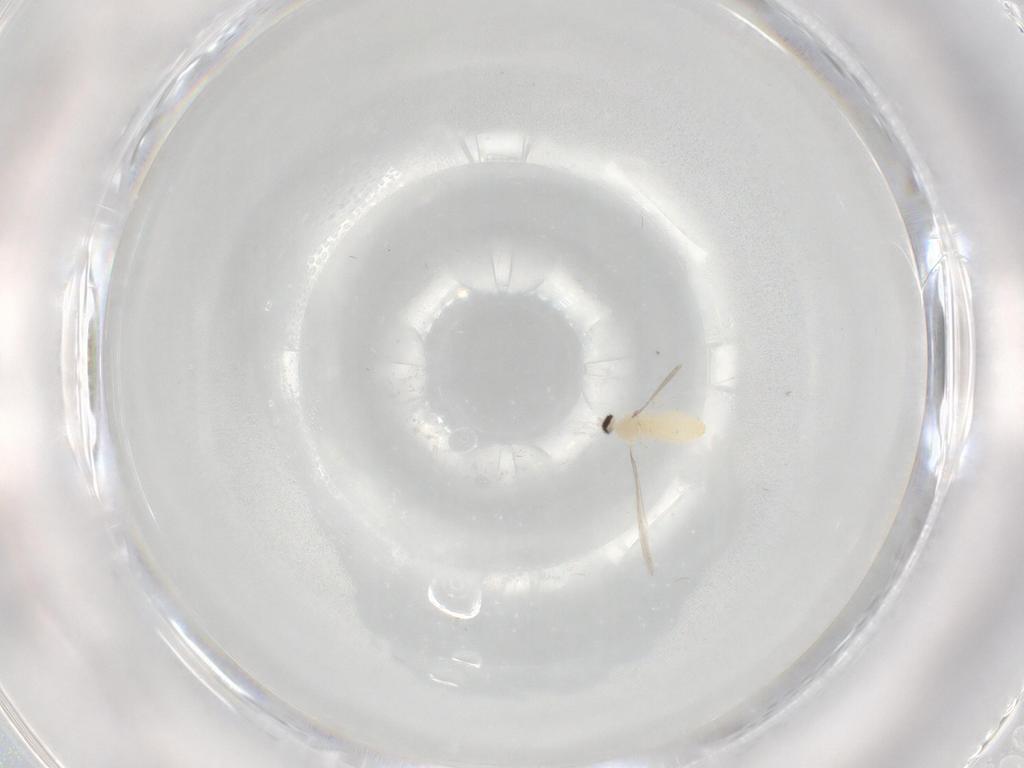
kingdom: Animalia
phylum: Arthropoda
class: Insecta
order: Diptera
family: Cecidomyiidae
